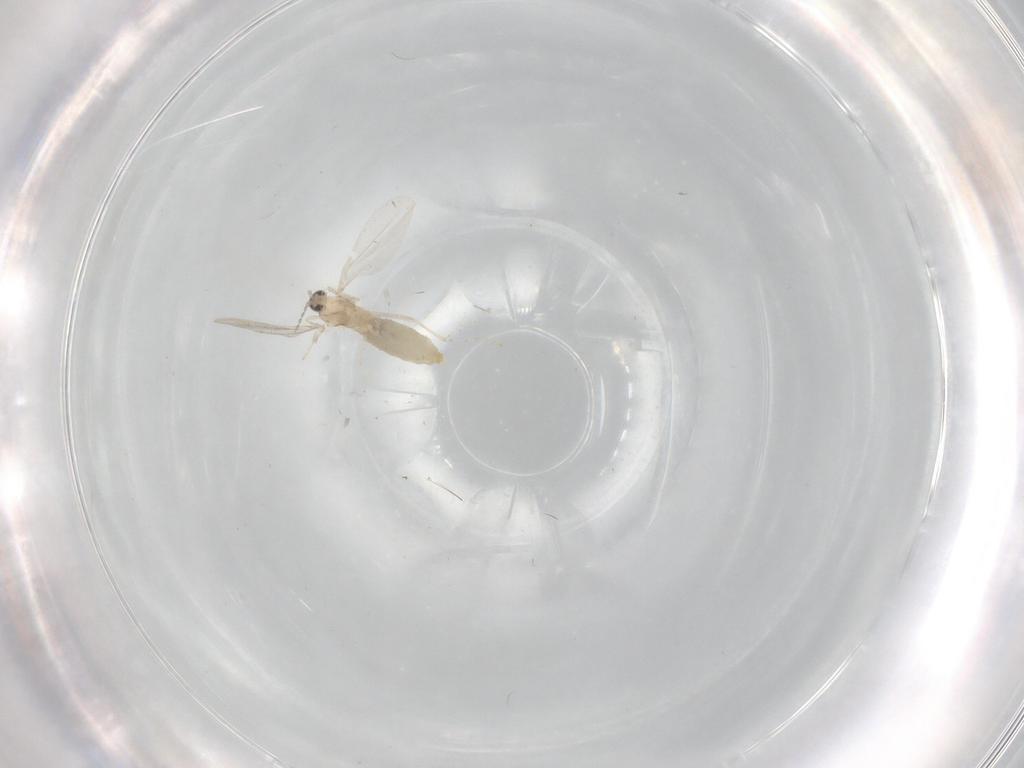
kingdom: Animalia
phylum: Arthropoda
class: Insecta
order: Diptera
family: Cecidomyiidae
